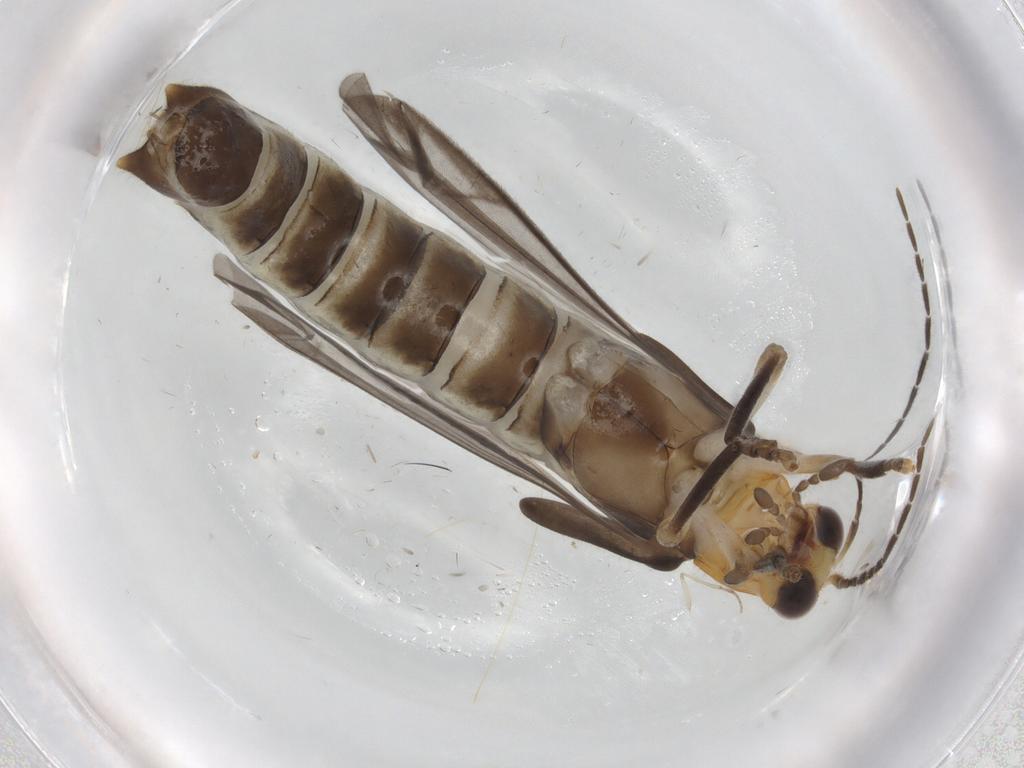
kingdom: Animalia
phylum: Arthropoda
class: Insecta
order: Coleoptera
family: Cantharidae
